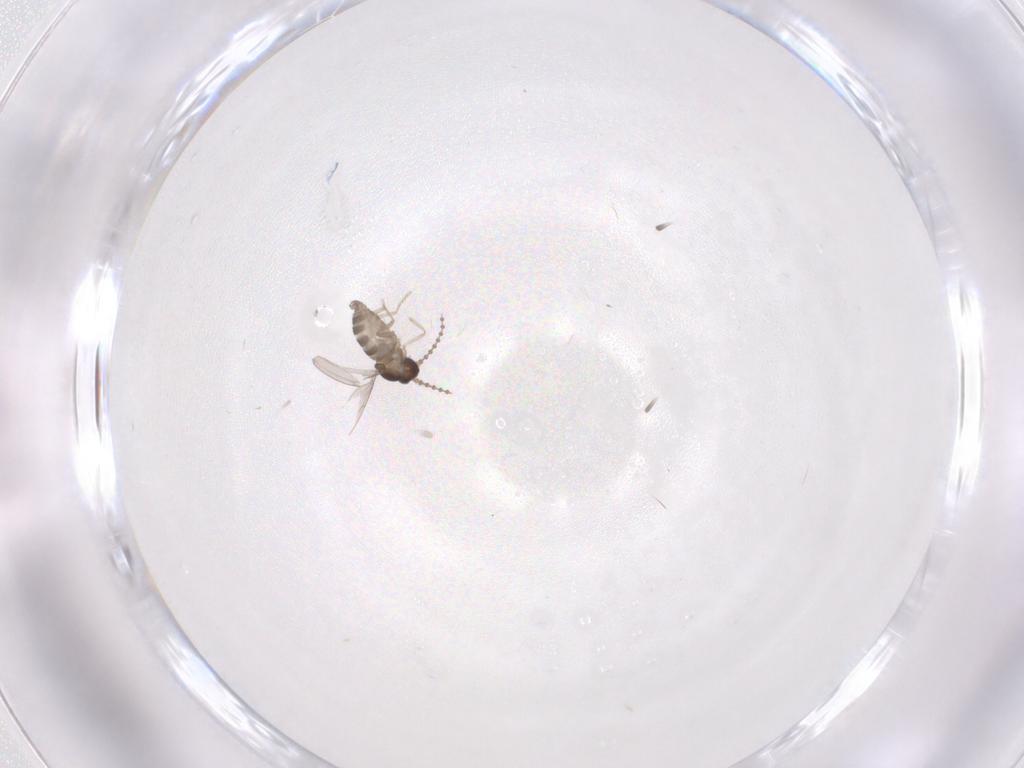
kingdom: Animalia
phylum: Arthropoda
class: Insecta
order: Diptera
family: Cecidomyiidae
